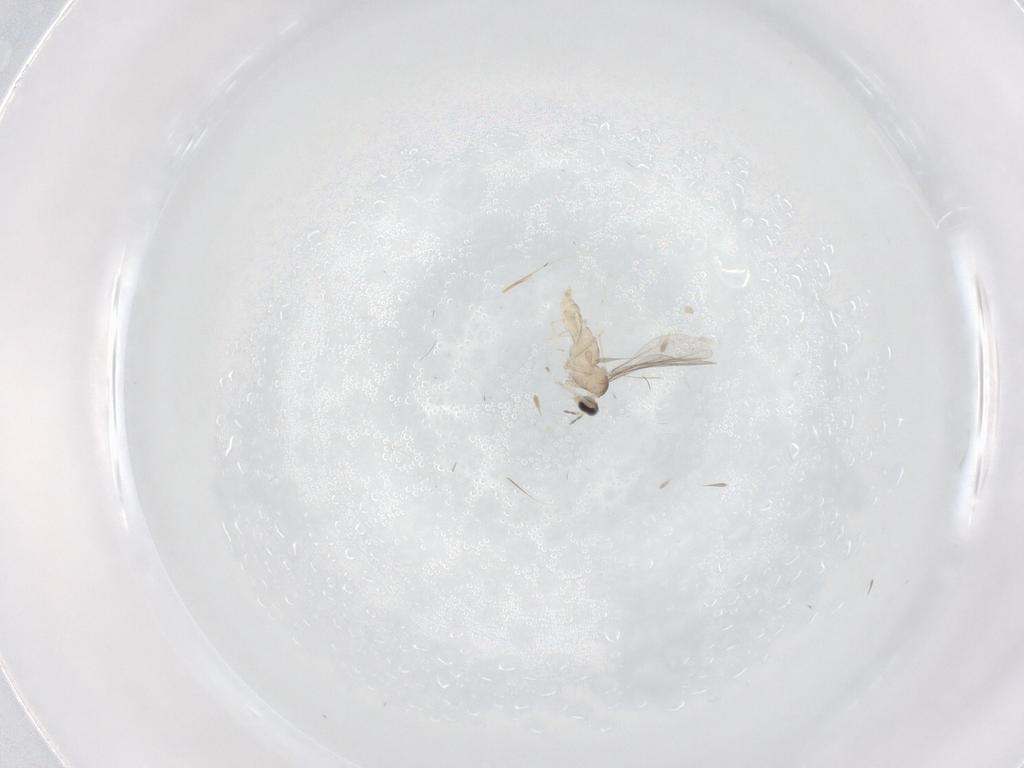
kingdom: Animalia
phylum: Arthropoda
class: Insecta
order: Diptera
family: Cecidomyiidae
